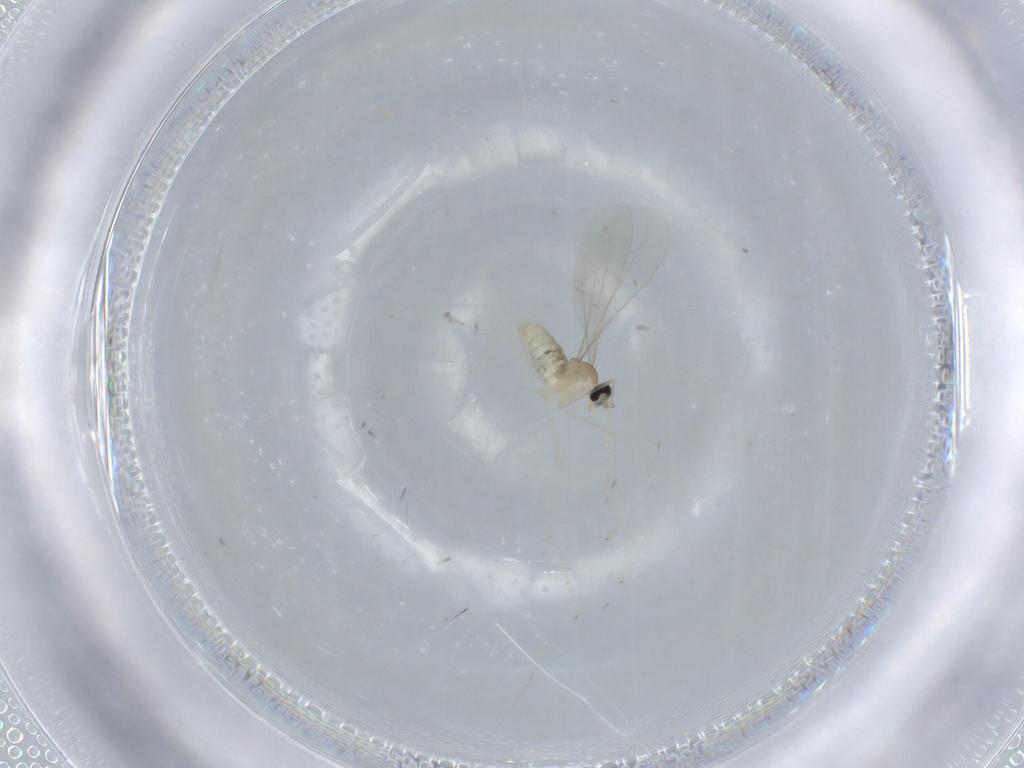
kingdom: Animalia
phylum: Arthropoda
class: Insecta
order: Diptera
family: Cecidomyiidae
